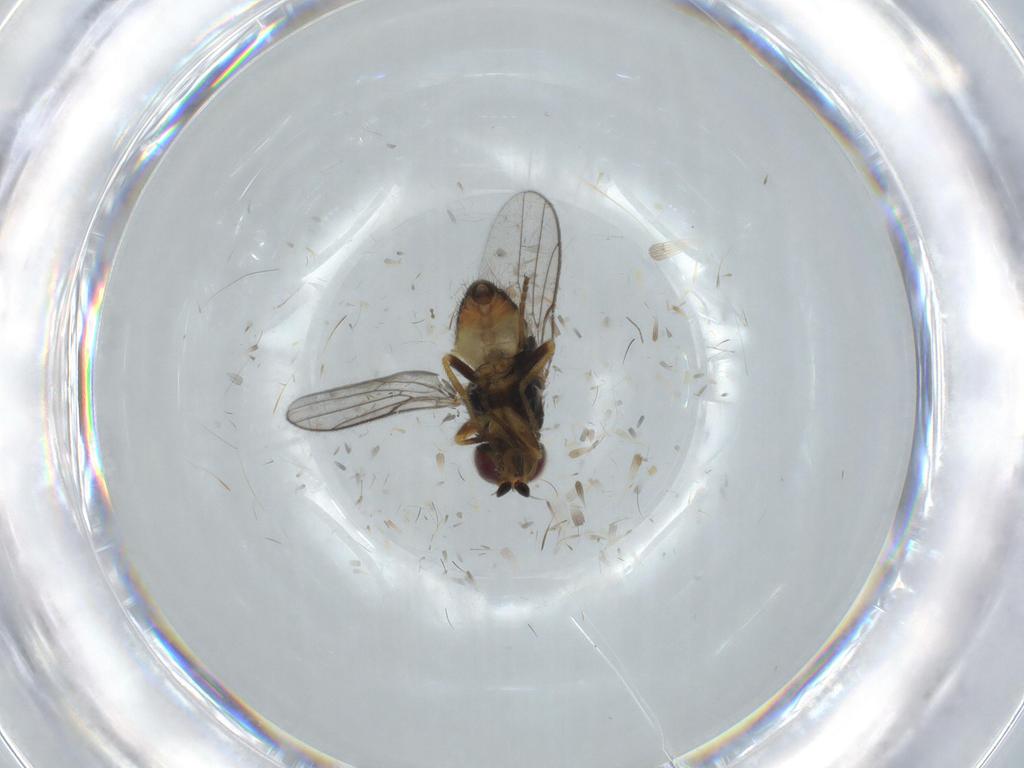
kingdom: Animalia
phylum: Arthropoda
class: Insecta
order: Diptera
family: Chloropidae
